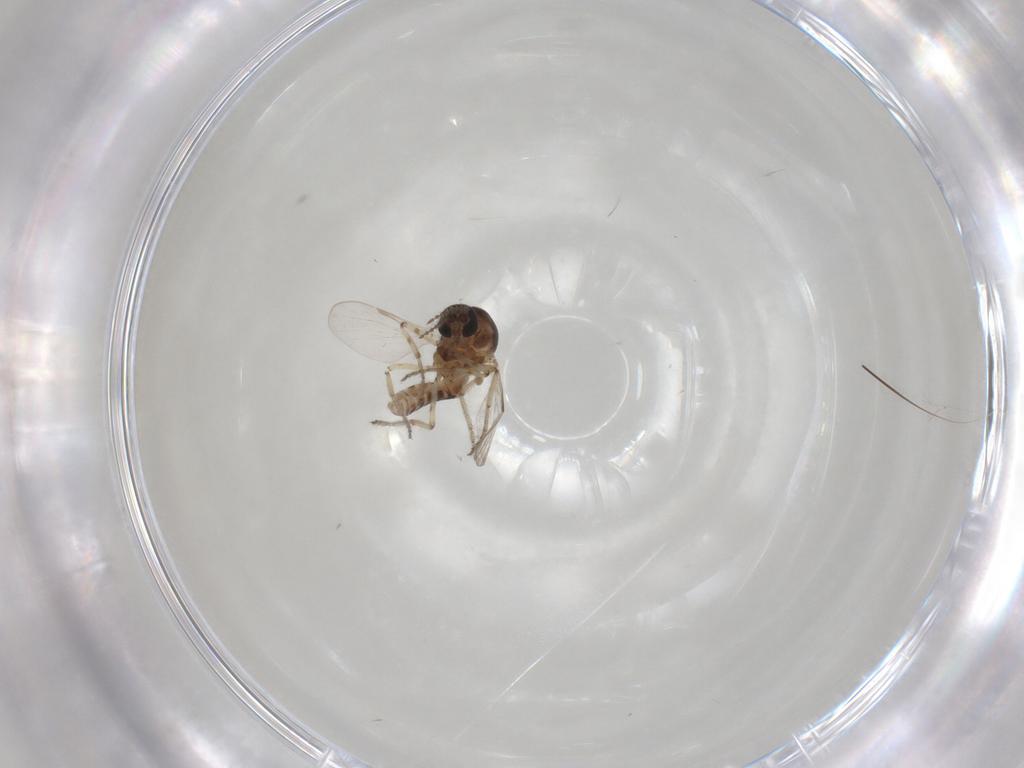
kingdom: Animalia
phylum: Arthropoda
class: Insecta
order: Diptera
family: Ceratopogonidae
